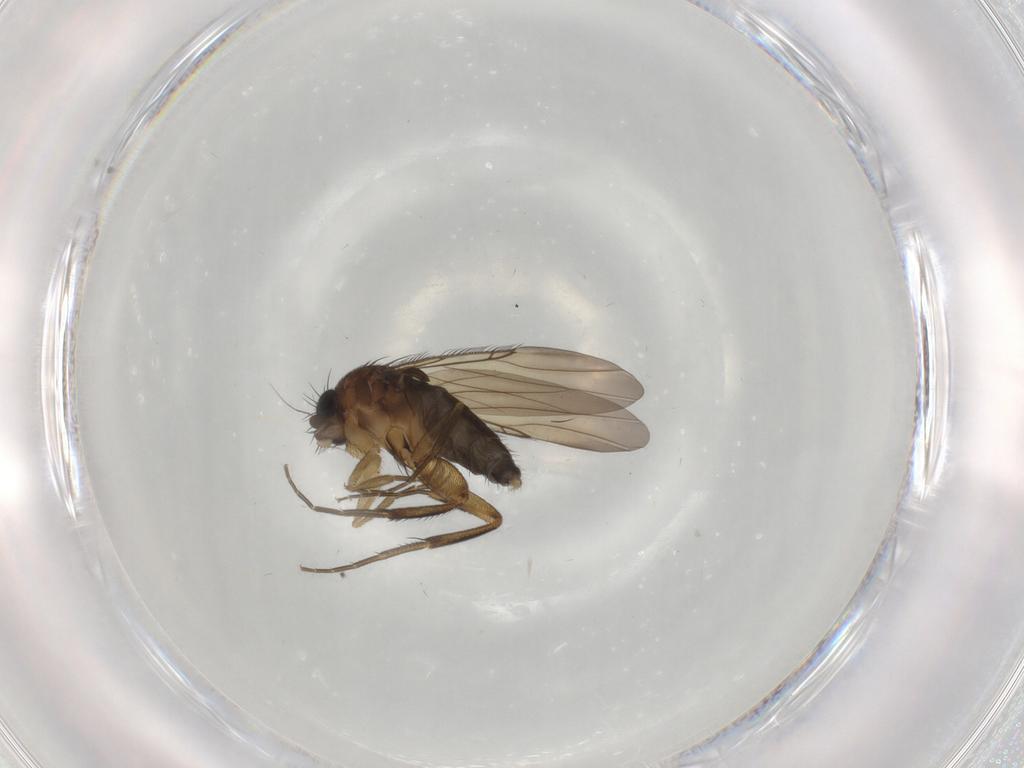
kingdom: Animalia
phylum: Arthropoda
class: Insecta
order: Diptera
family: Phoridae
